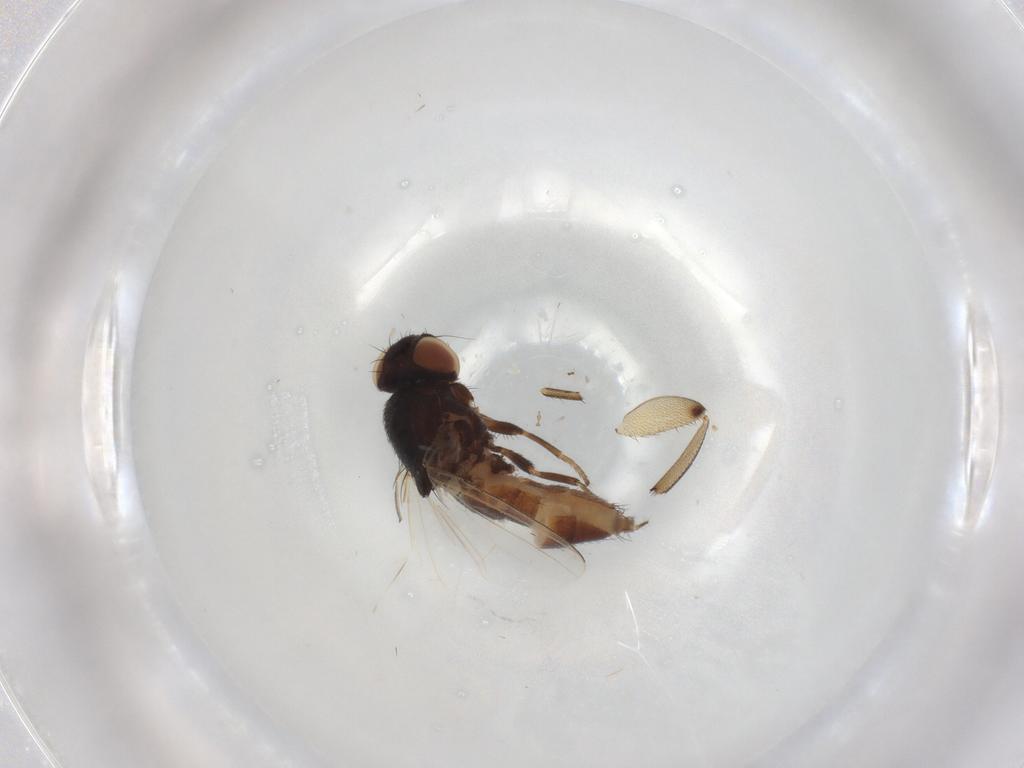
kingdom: Animalia
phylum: Arthropoda
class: Insecta
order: Diptera
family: Milichiidae
